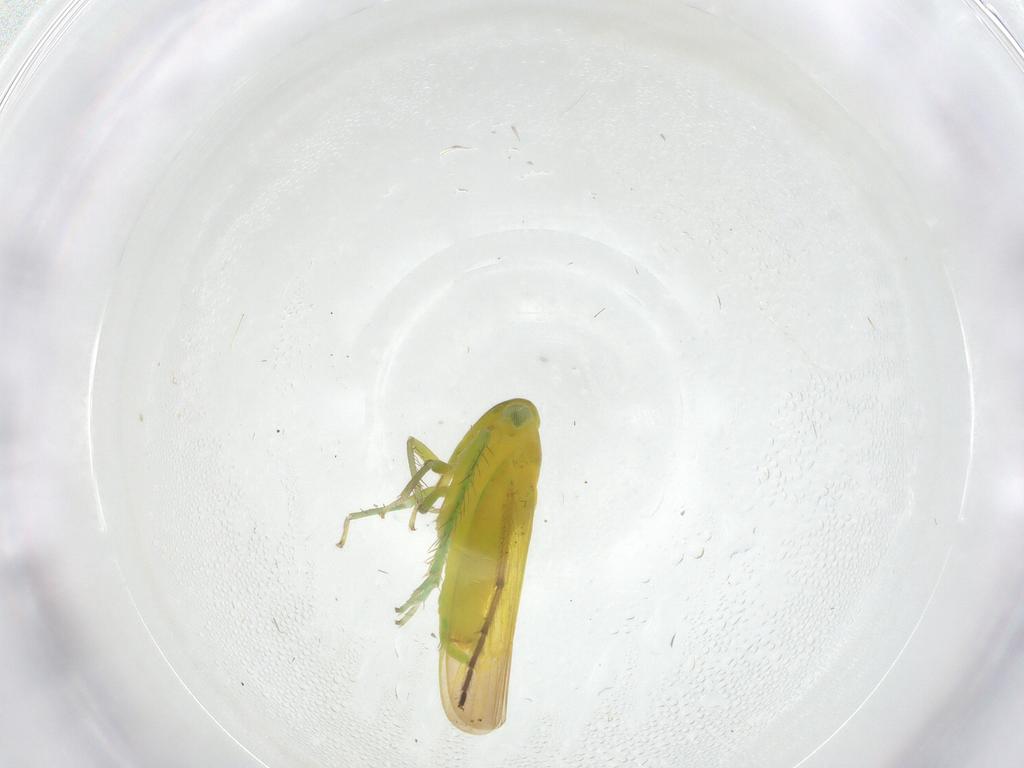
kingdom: Animalia
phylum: Arthropoda
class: Insecta
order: Hemiptera
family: Cicadellidae
